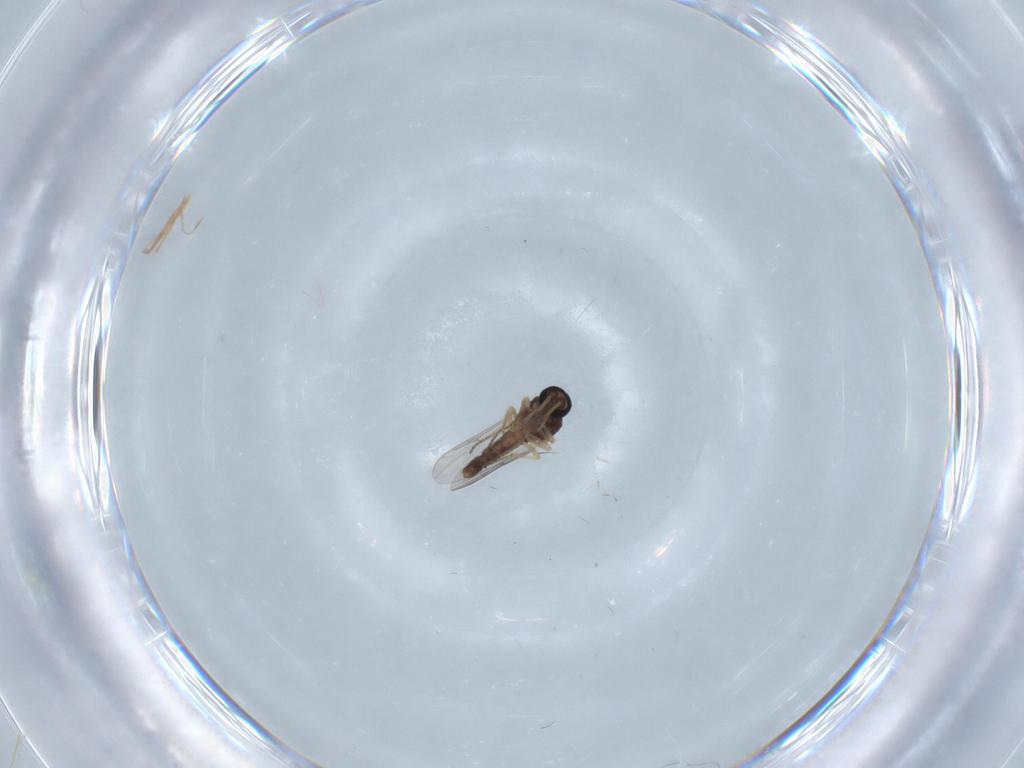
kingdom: Animalia
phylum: Arthropoda
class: Insecta
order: Diptera
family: Ceratopogonidae
